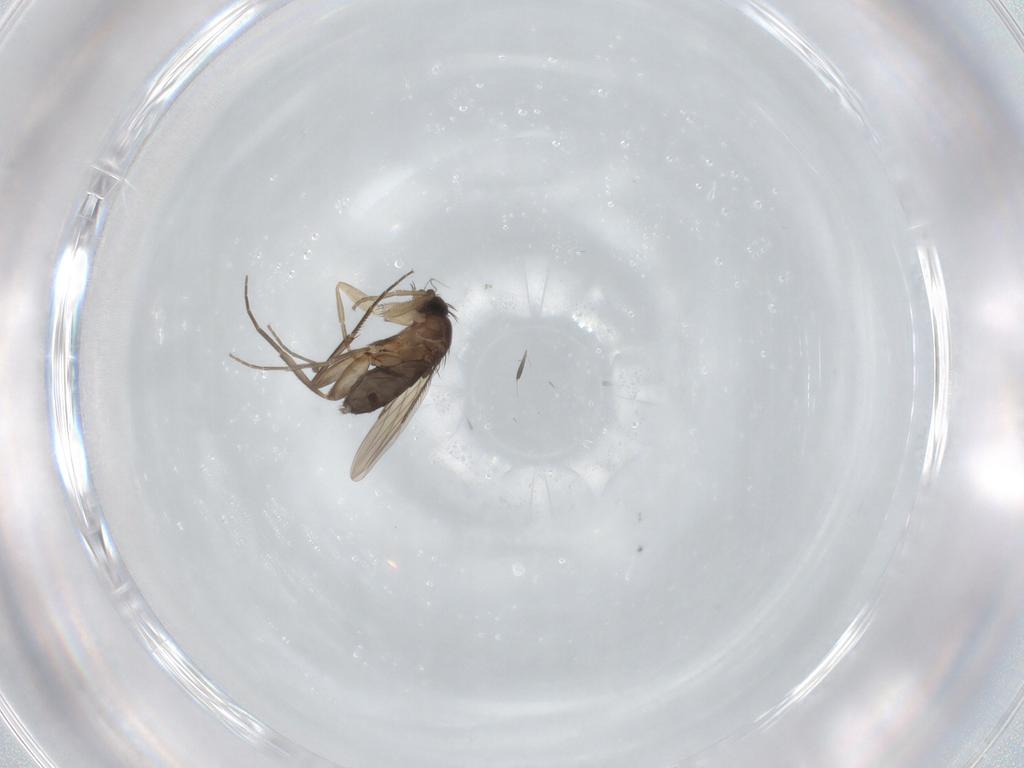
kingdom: Animalia
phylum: Arthropoda
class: Insecta
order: Diptera
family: Phoridae
